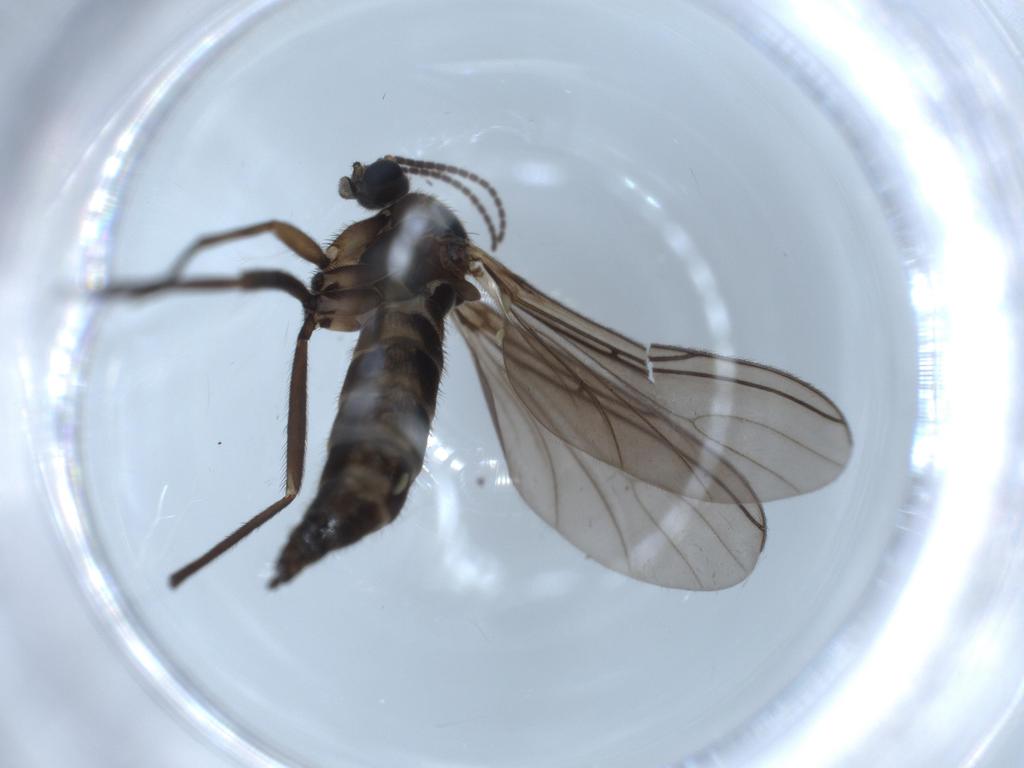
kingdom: Animalia
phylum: Arthropoda
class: Insecta
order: Diptera
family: Sciaridae
